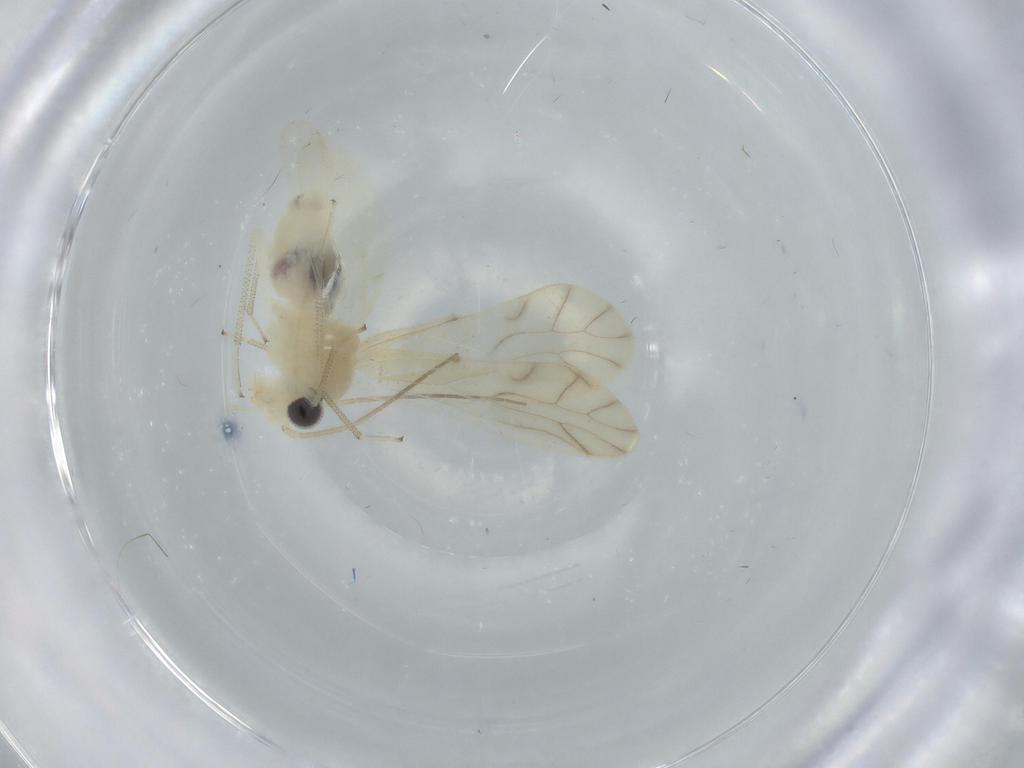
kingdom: Animalia
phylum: Arthropoda
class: Insecta
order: Psocodea
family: Caeciliusidae
